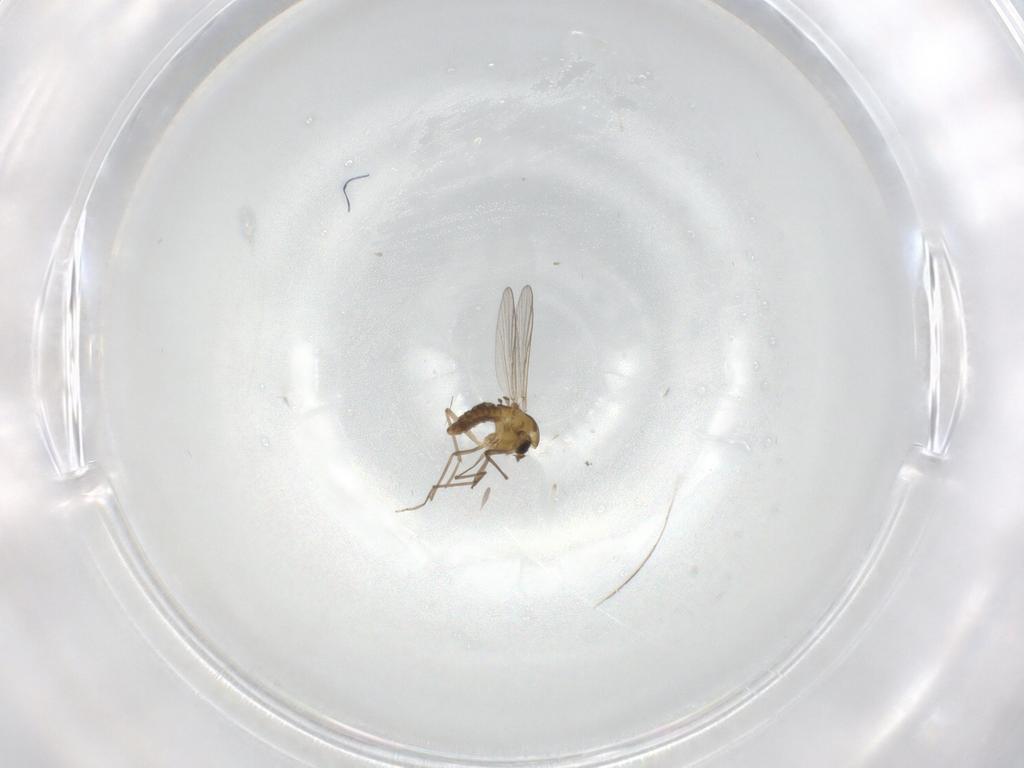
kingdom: Animalia
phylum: Arthropoda
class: Insecta
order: Diptera
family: Chironomidae
